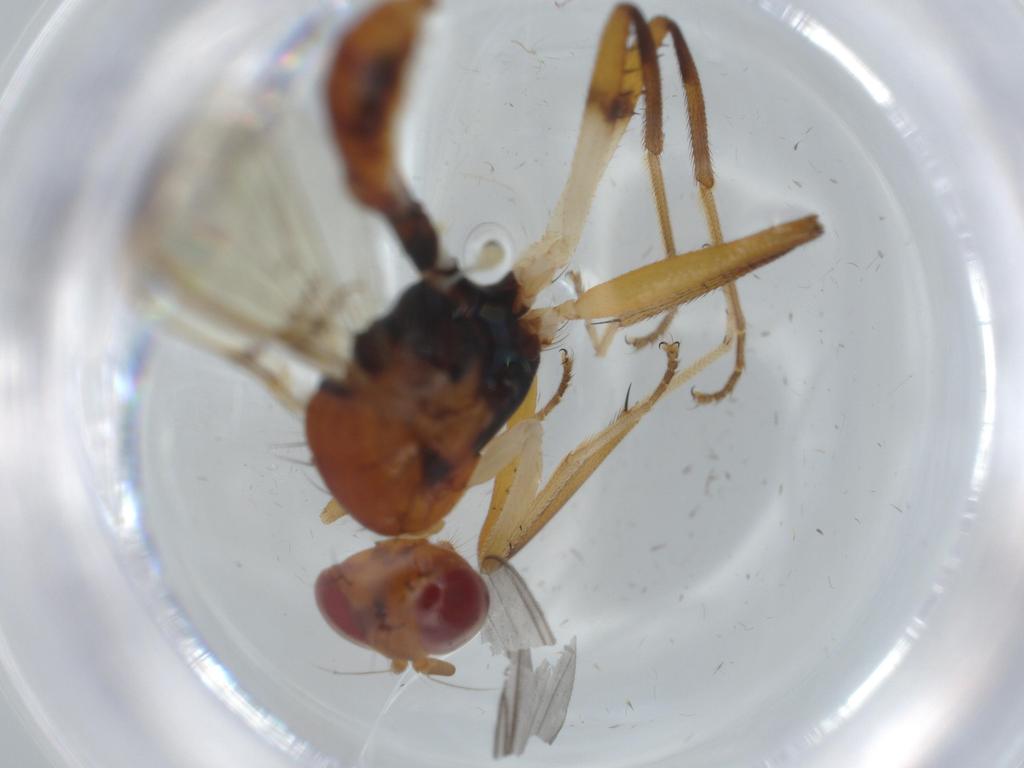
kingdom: Animalia
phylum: Arthropoda
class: Insecta
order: Diptera
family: Richardiidae
